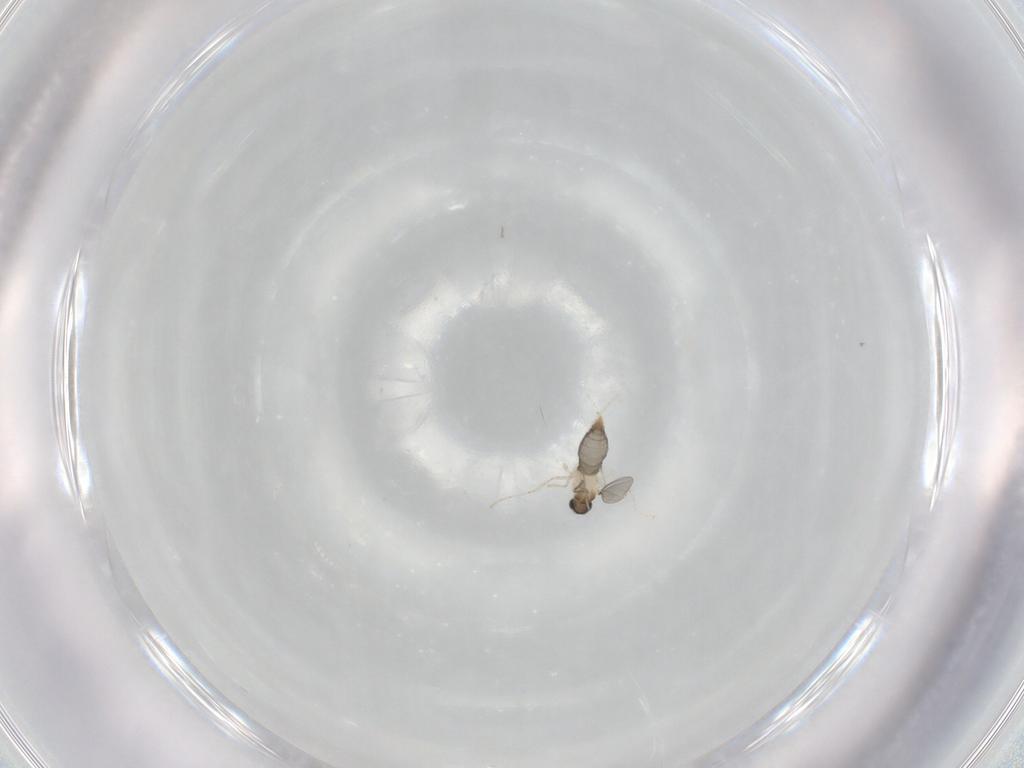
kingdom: Animalia
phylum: Arthropoda
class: Insecta
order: Diptera
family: Cecidomyiidae
